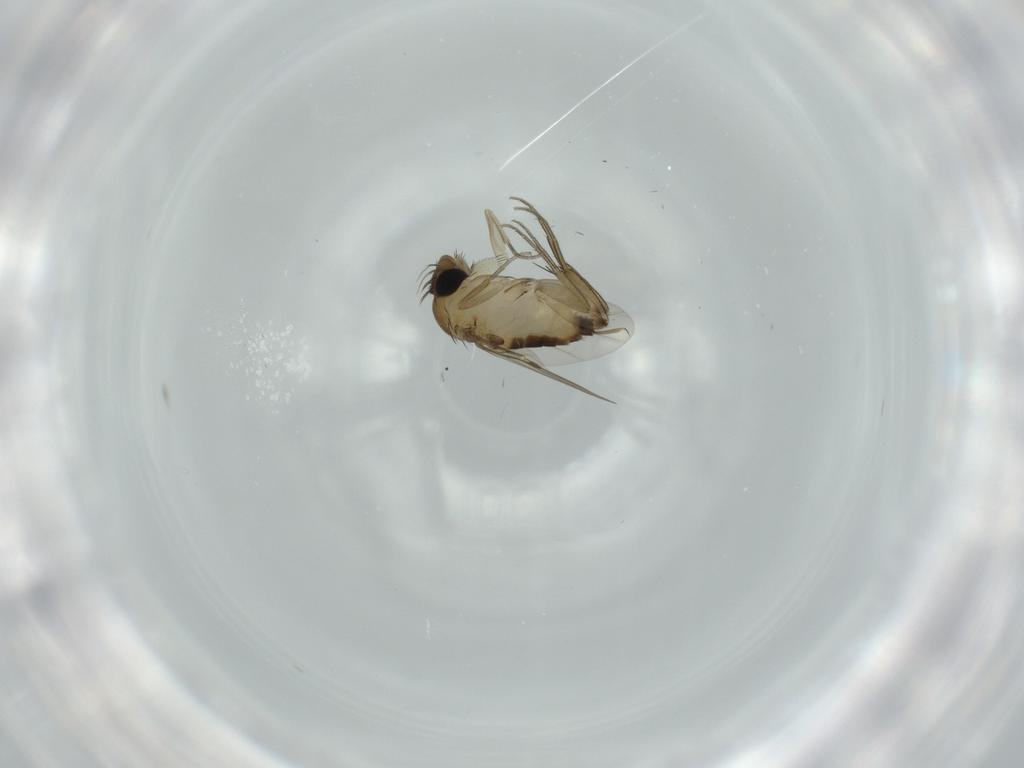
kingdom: Animalia
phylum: Arthropoda
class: Insecta
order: Diptera
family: Phoridae
